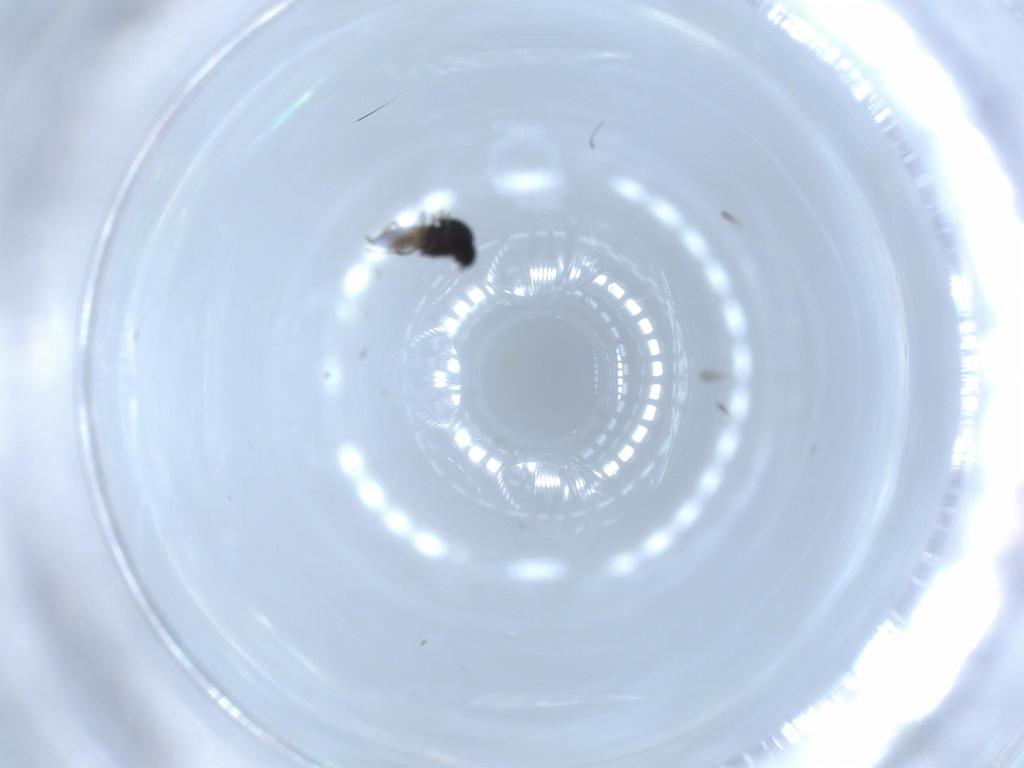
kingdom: Animalia
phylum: Arthropoda
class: Insecta
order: Diptera
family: Ceratopogonidae
